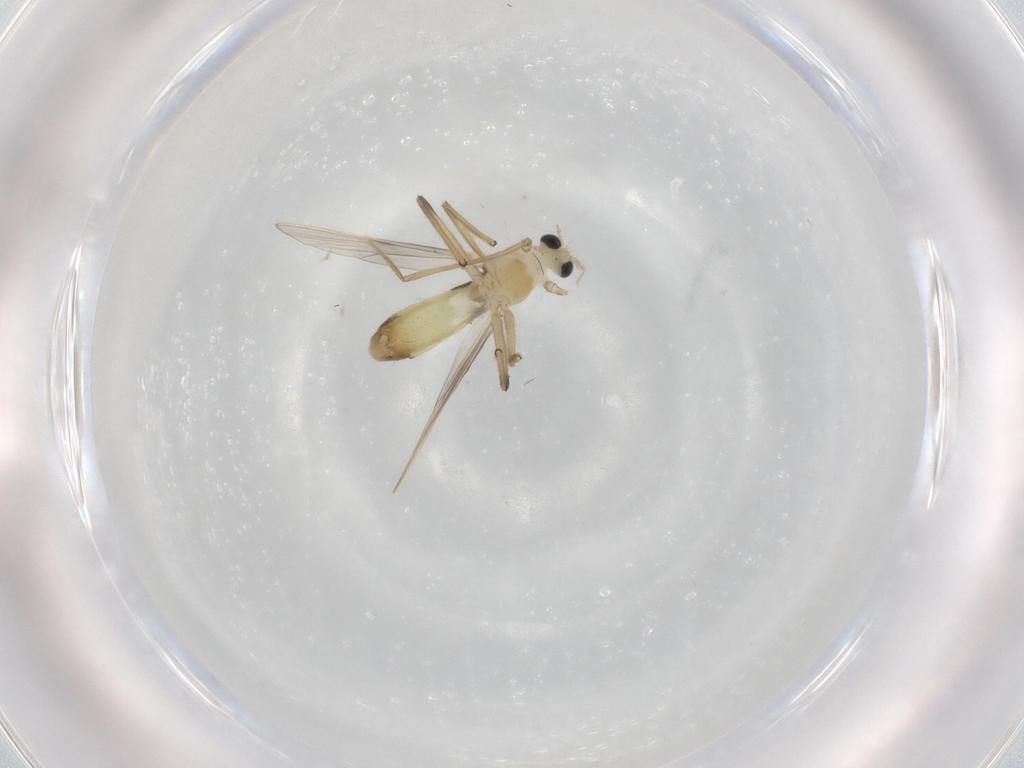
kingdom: Animalia
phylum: Arthropoda
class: Insecta
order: Diptera
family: Chironomidae
